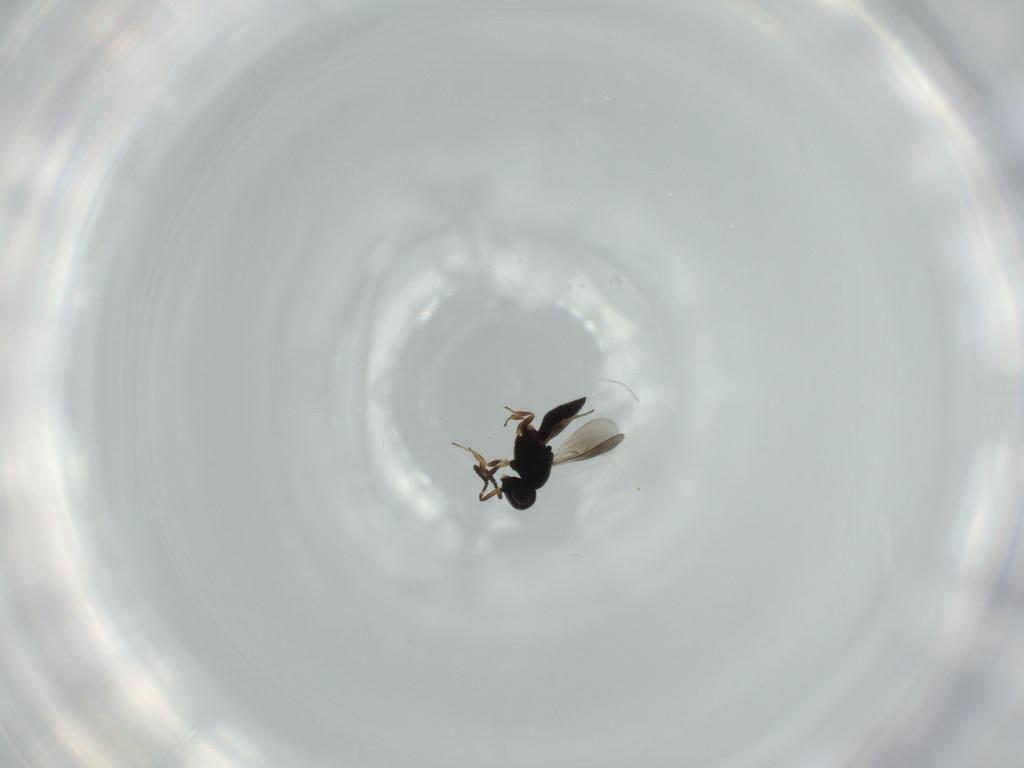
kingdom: Animalia
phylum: Arthropoda
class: Insecta
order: Hymenoptera
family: Scelionidae
